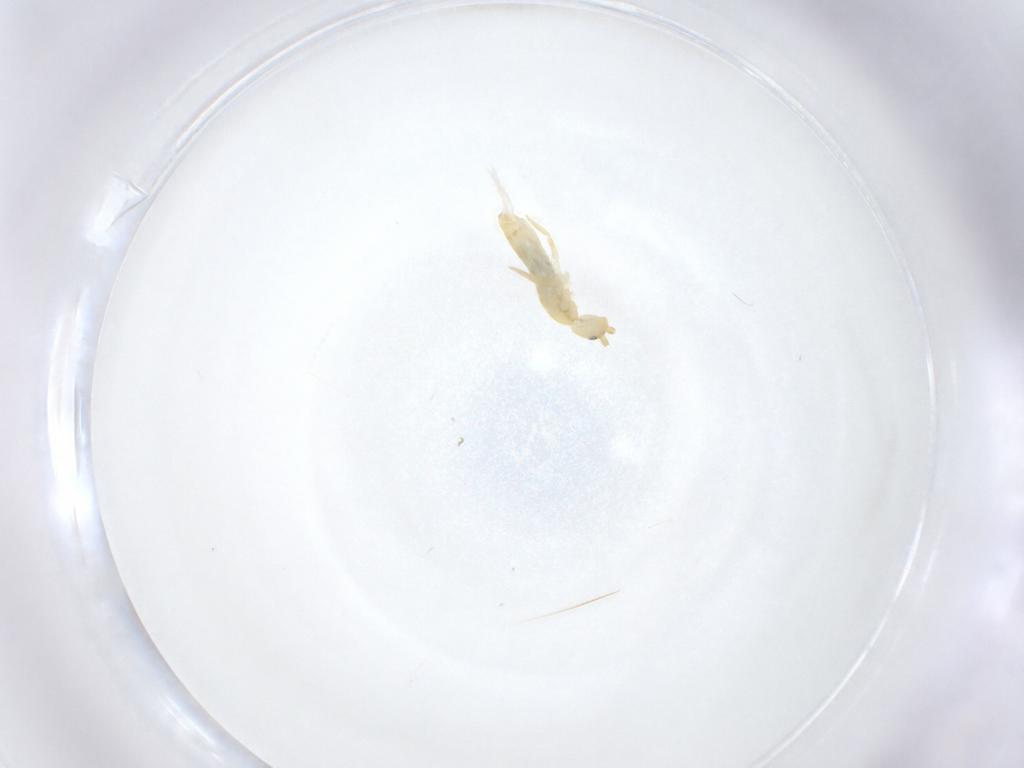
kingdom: Animalia
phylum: Arthropoda
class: Collembola
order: Entomobryomorpha
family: Entomobryidae
